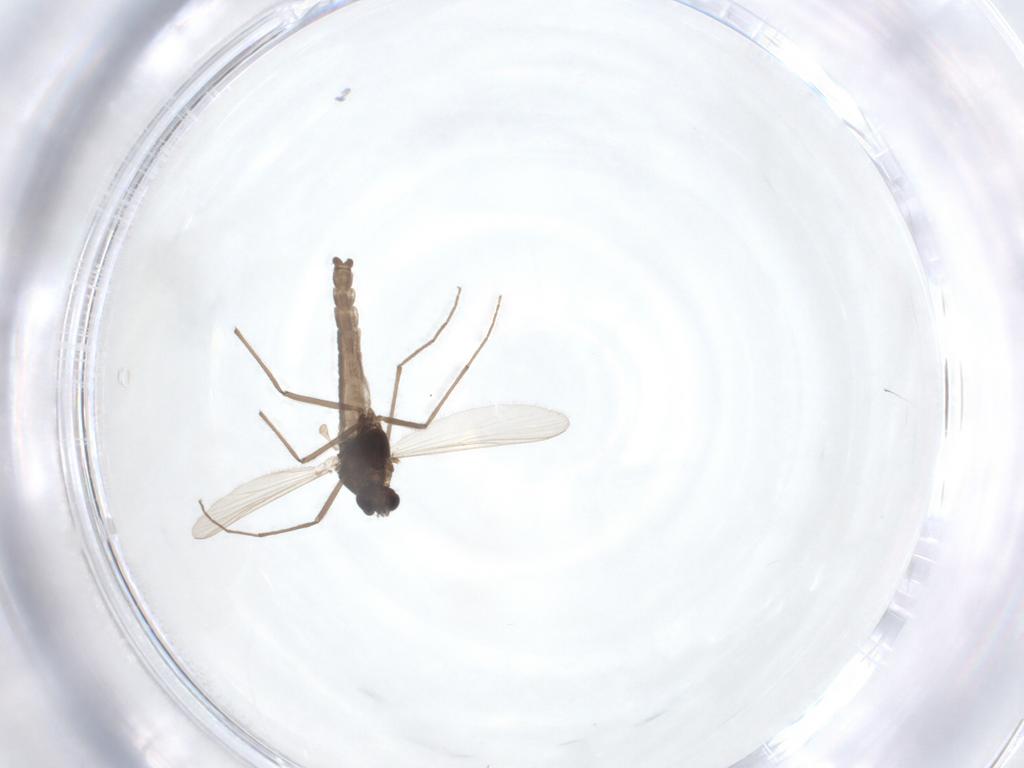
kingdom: Animalia
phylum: Arthropoda
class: Insecta
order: Diptera
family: Chironomidae
